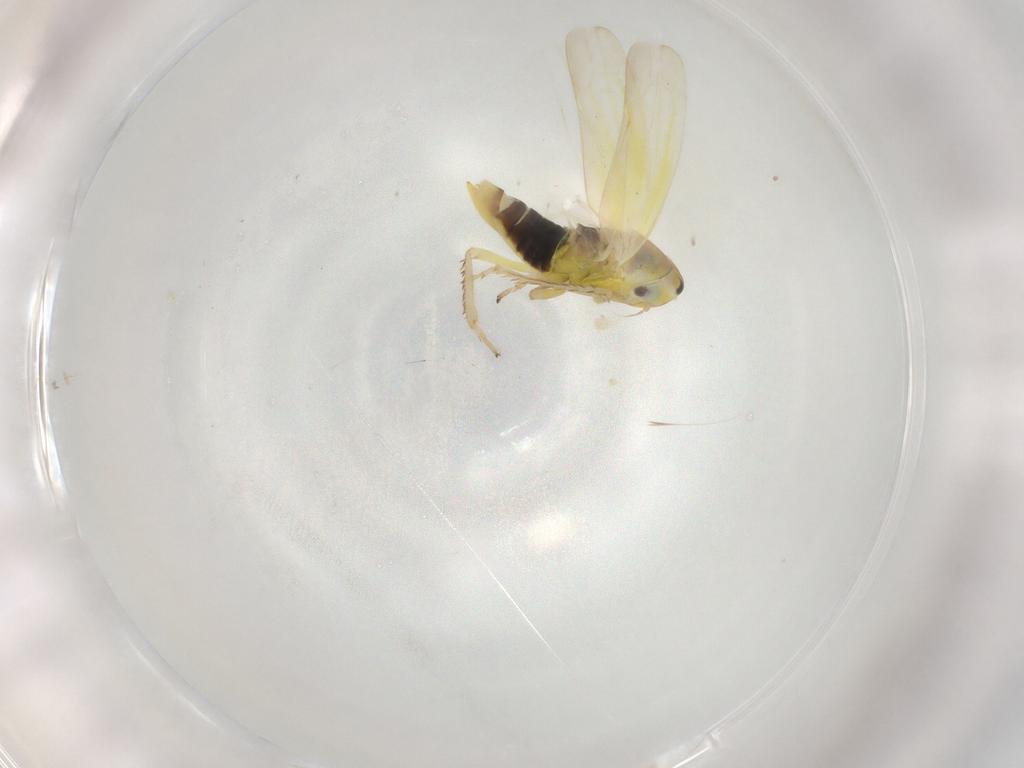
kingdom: Animalia
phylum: Arthropoda
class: Insecta
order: Hemiptera
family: Cicadellidae
